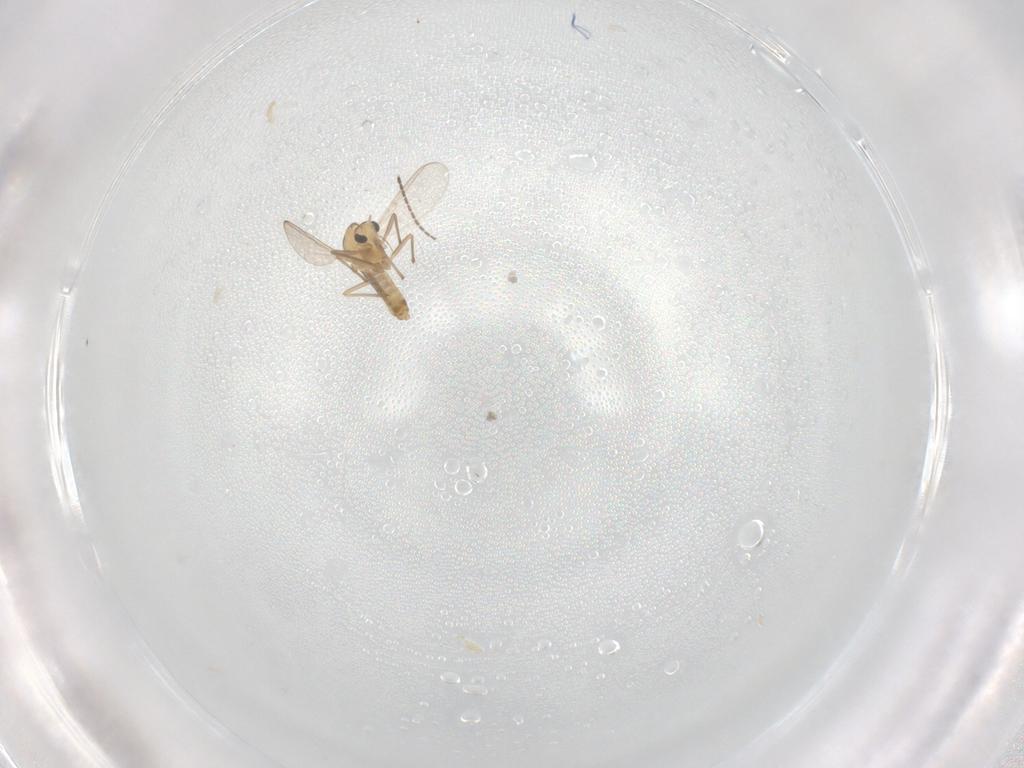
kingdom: Animalia
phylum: Arthropoda
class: Insecta
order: Diptera
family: Chironomidae
